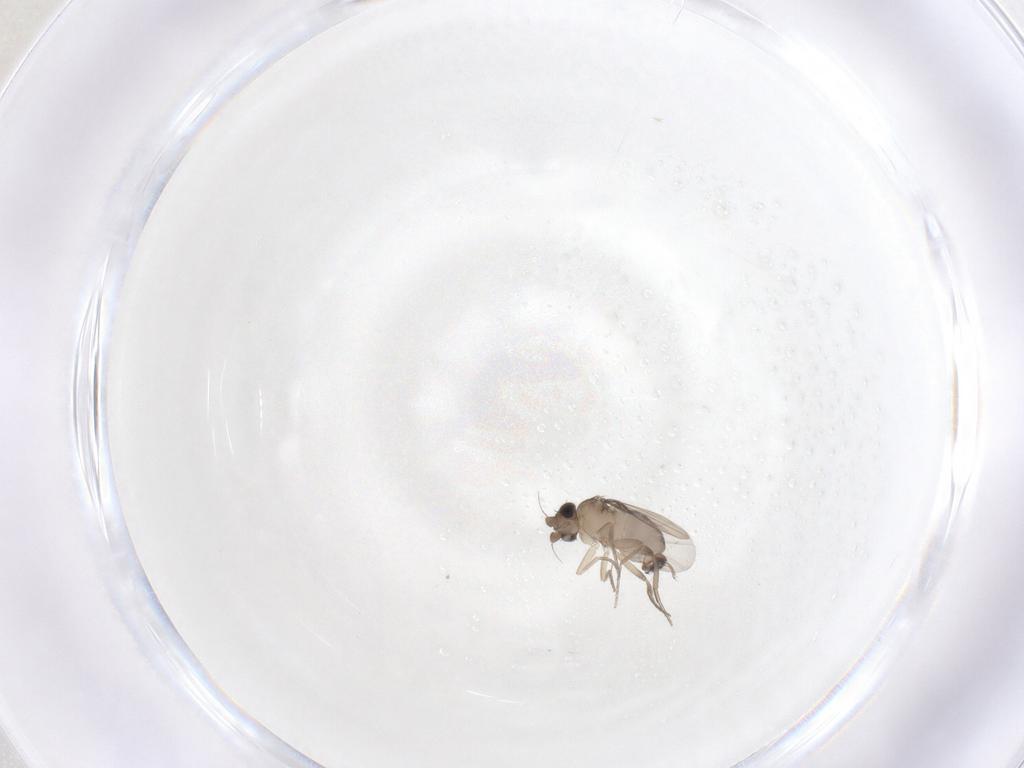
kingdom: Animalia
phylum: Arthropoda
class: Insecta
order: Diptera
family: Phoridae
